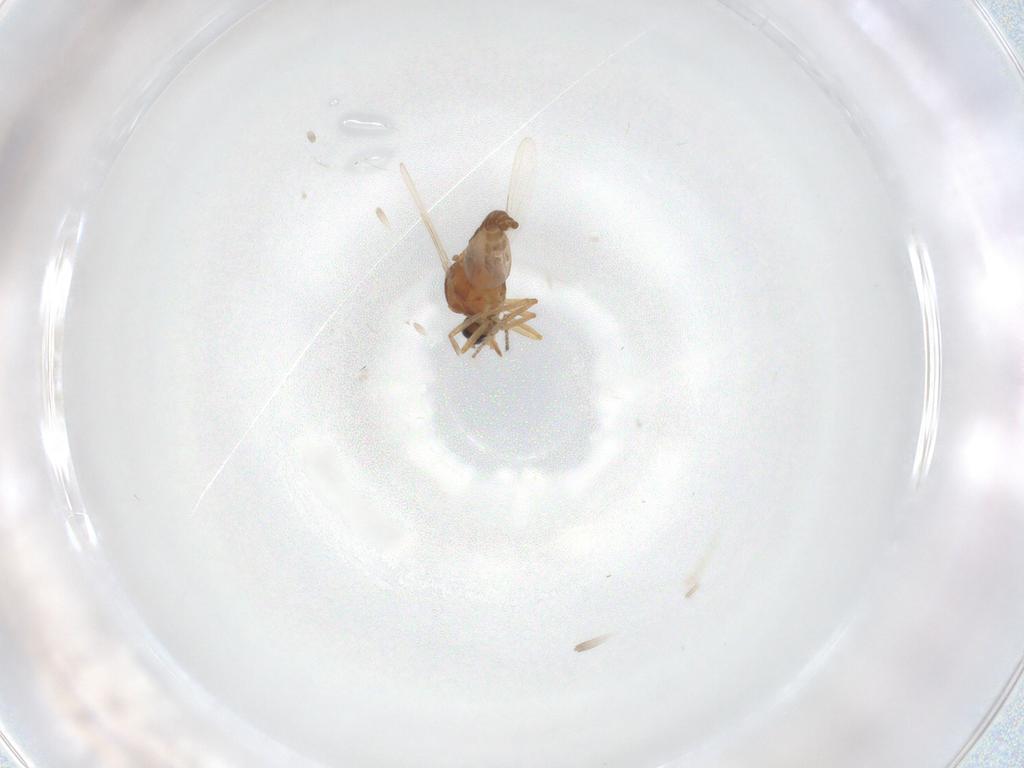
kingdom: Animalia
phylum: Arthropoda
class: Insecta
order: Diptera
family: Ceratopogonidae
